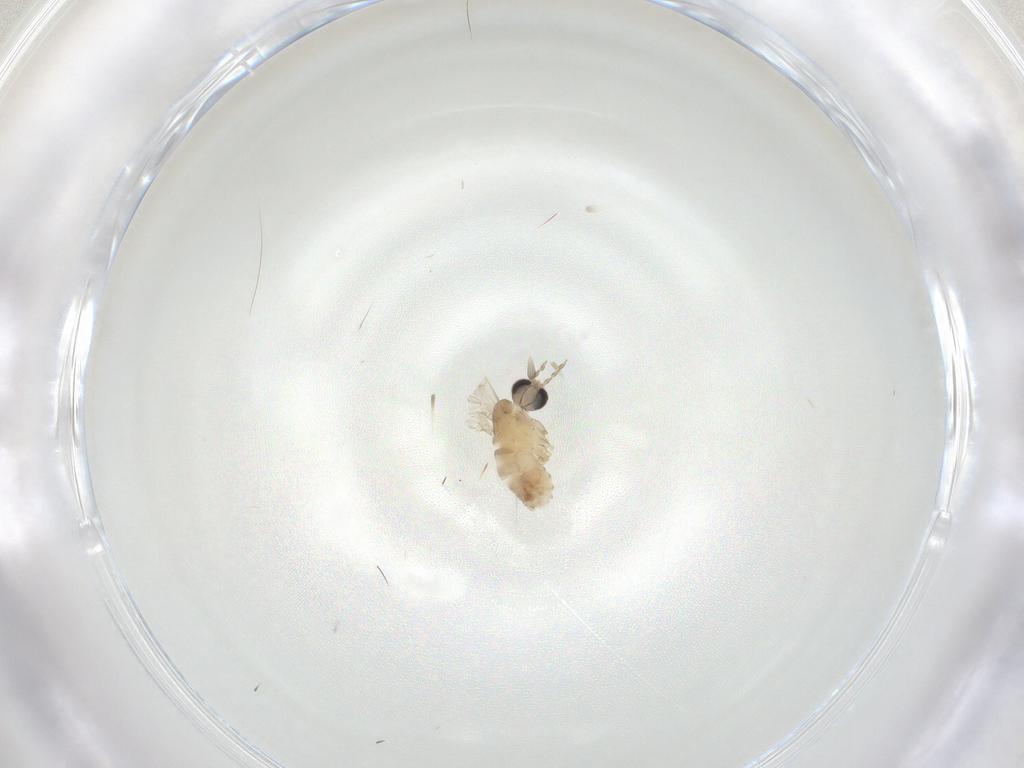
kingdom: Animalia
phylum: Arthropoda
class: Insecta
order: Diptera
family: Psychodidae
